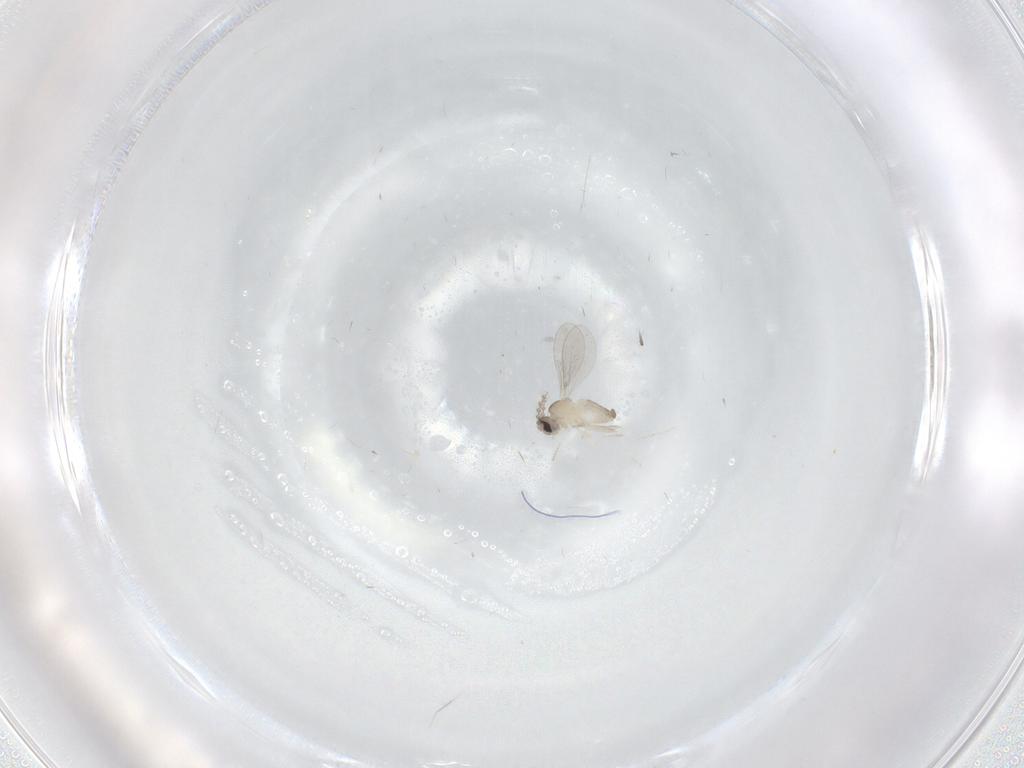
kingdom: Animalia
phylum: Arthropoda
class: Insecta
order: Diptera
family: Cecidomyiidae
